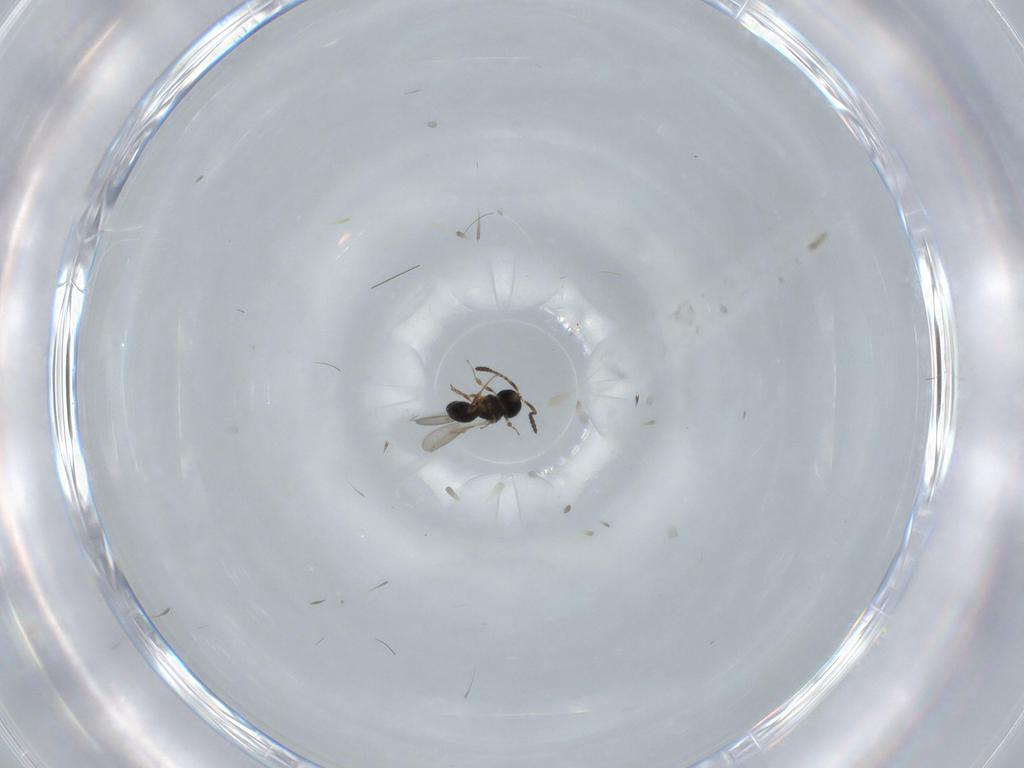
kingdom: Animalia
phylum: Arthropoda
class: Insecta
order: Hymenoptera
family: Scelionidae
